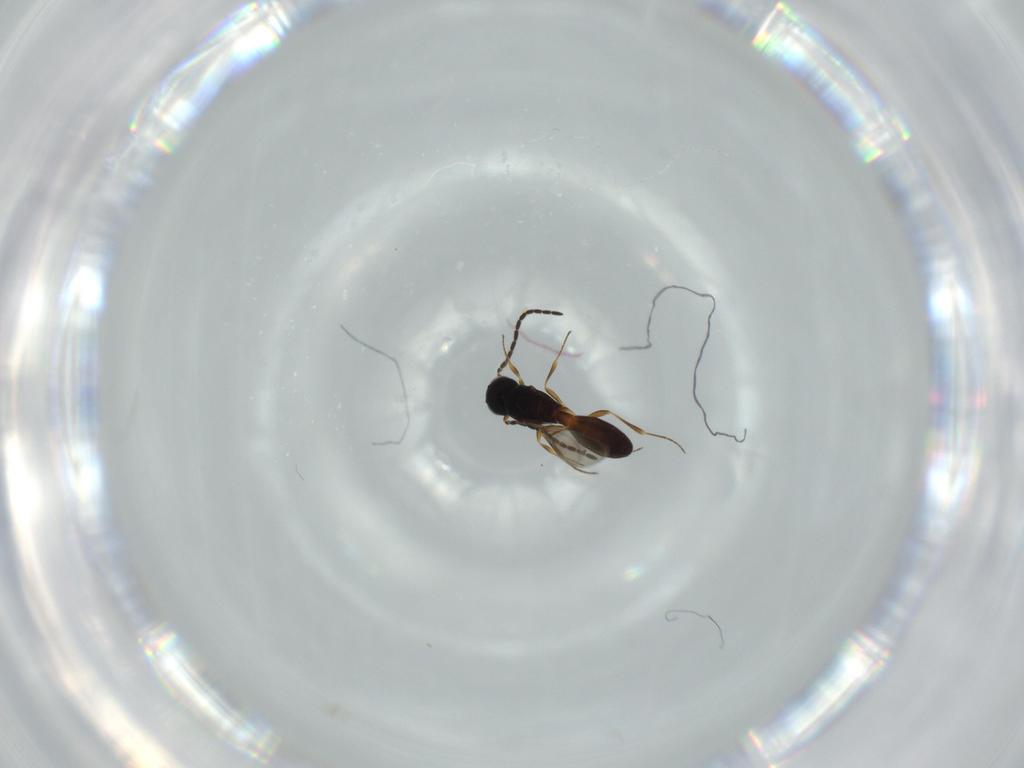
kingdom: Animalia
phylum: Arthropoda
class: Insecta
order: Hymenoptera
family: Scelionidae
